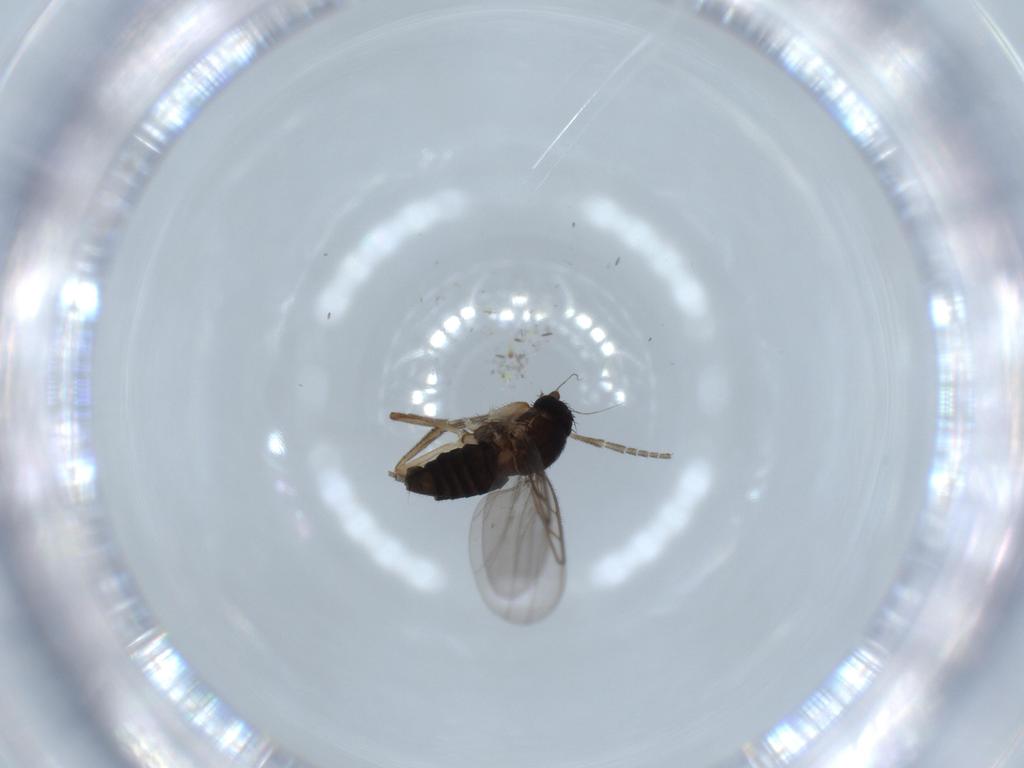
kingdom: Animalia
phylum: Arthropoda
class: Insecta
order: Diptera
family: Phoridae
